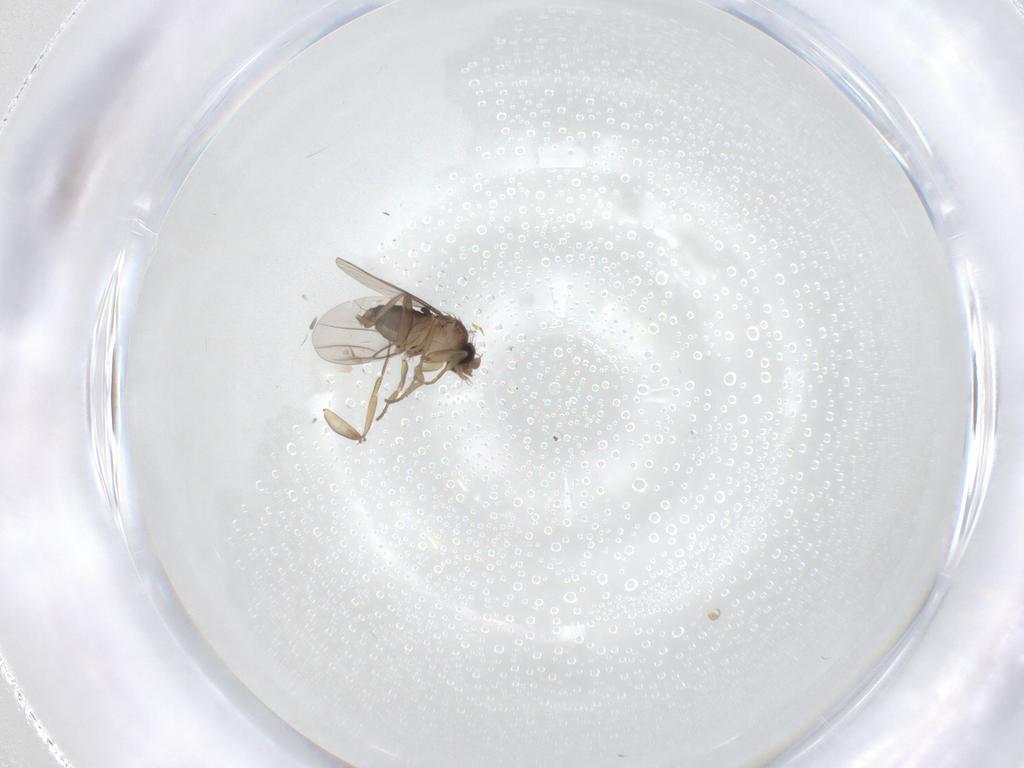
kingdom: Animalia
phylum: Arthropoda
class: Insecta
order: Diptera
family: Phoridae
